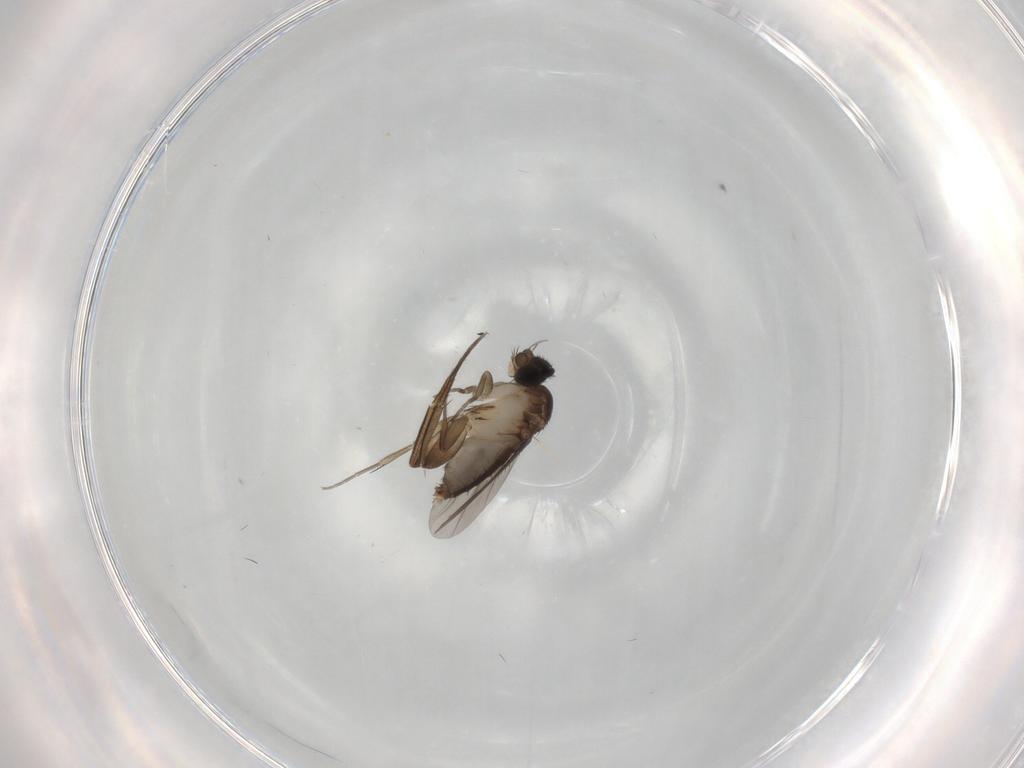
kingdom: Animalia
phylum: Arthropoda
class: Insecta
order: Diptera
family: Phoridae
